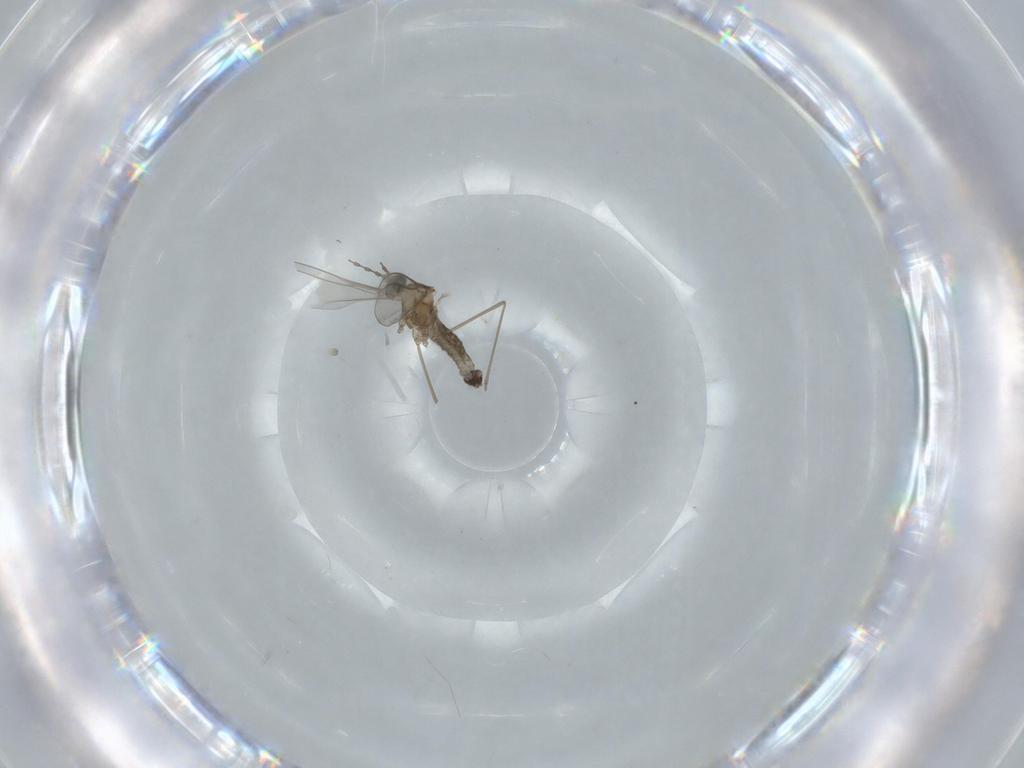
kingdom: Animalia
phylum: Arthropoda
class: Insecta
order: Diptera
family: Cecidomyiidae
